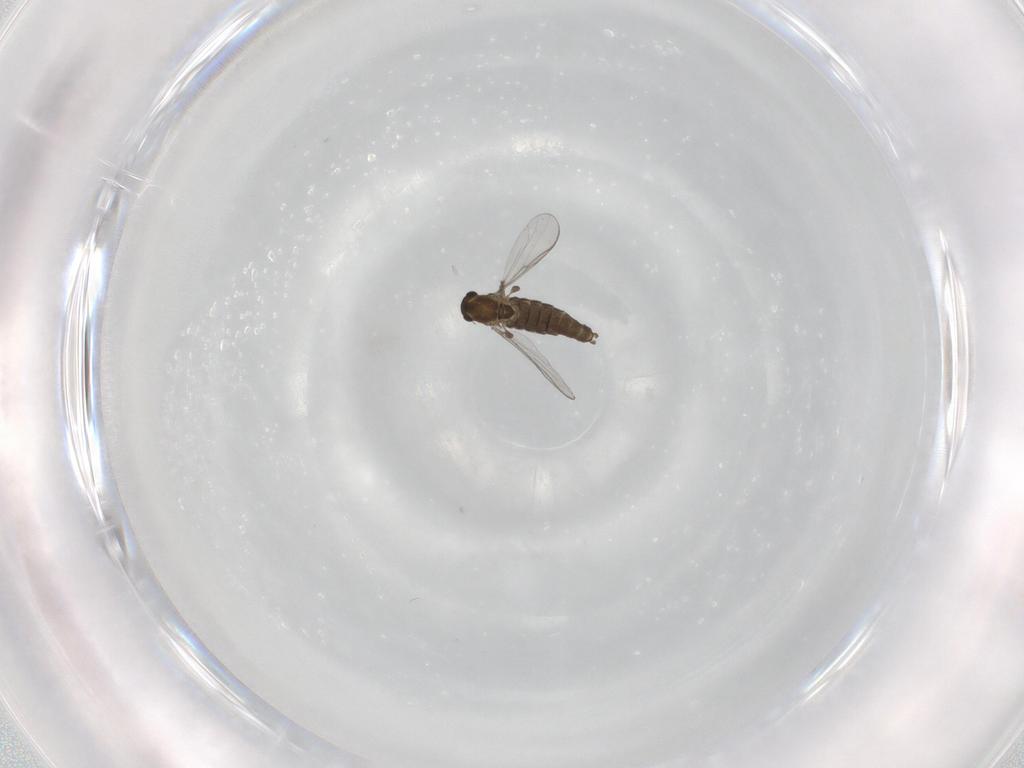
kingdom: Animalia
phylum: Arthropoda
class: Insecta
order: Diptera
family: Chironomidae
